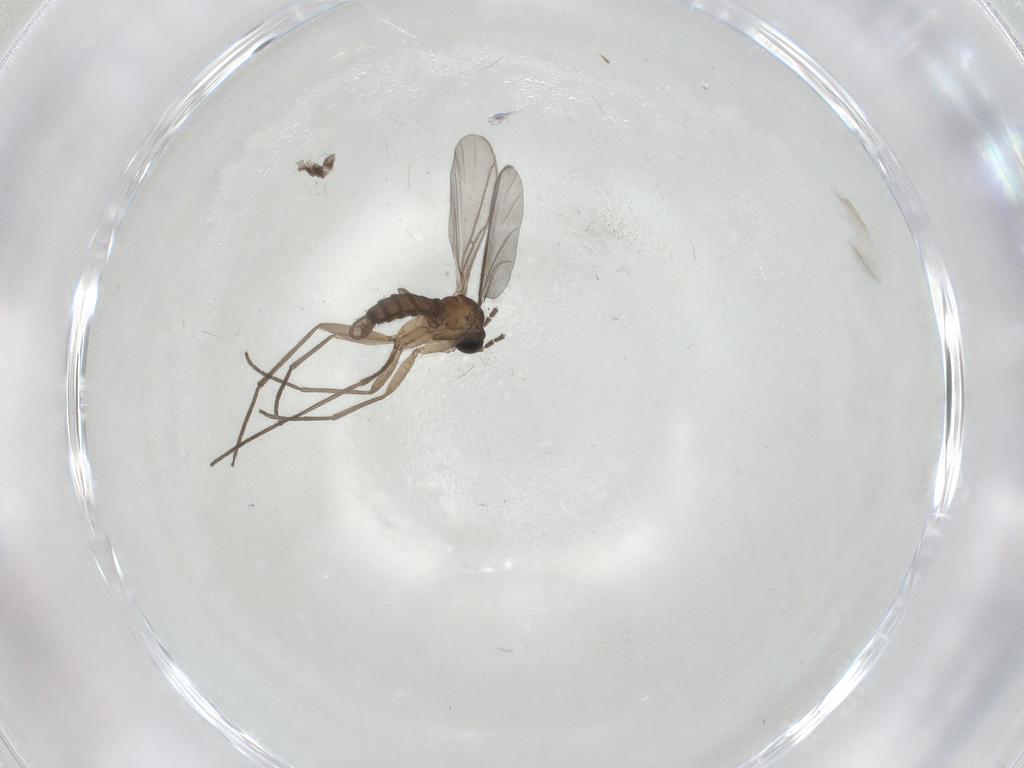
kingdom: Animalia
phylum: Arthropoda
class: Insecta
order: Diptera
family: Sciaridae
